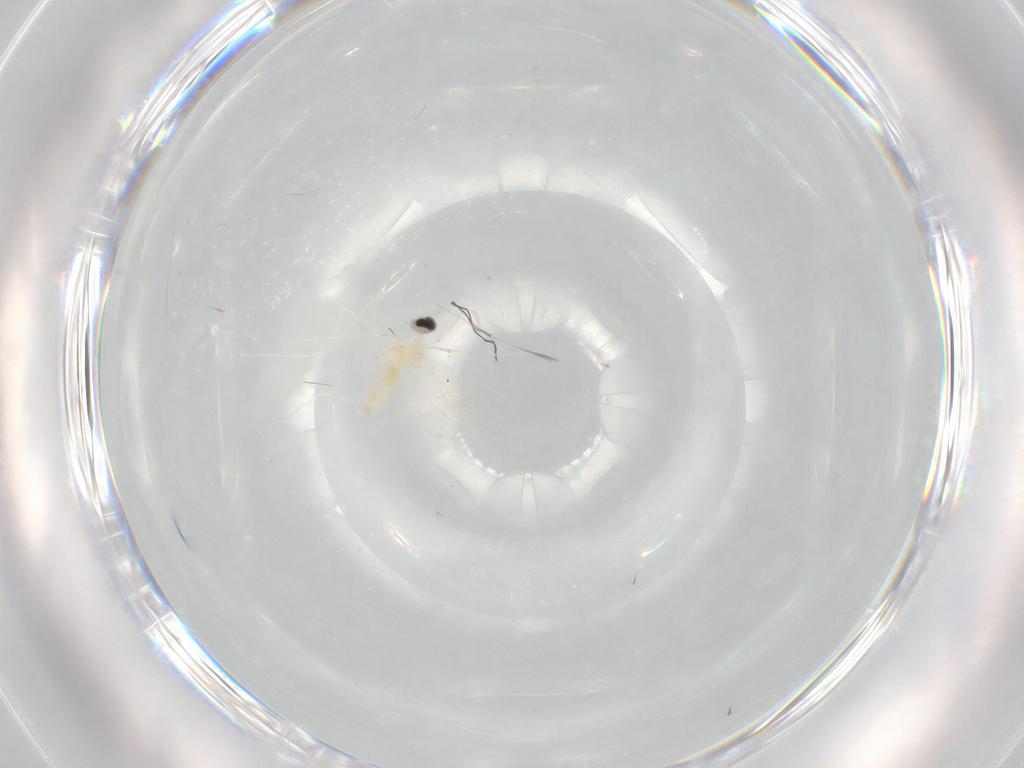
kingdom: Animalia
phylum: Arthropoda
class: Insecta
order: Diptera
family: Cecidomyiidae
